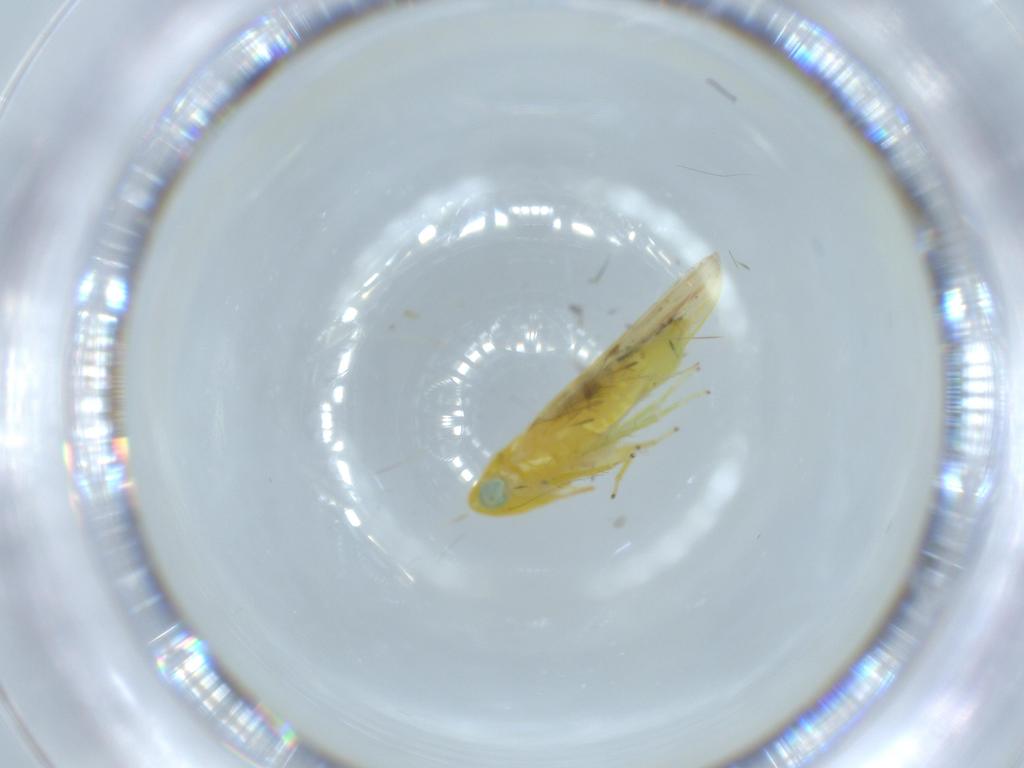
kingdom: Animalia
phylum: Arthropoda
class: Insecta
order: Hemiptera
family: Cicadellidae
